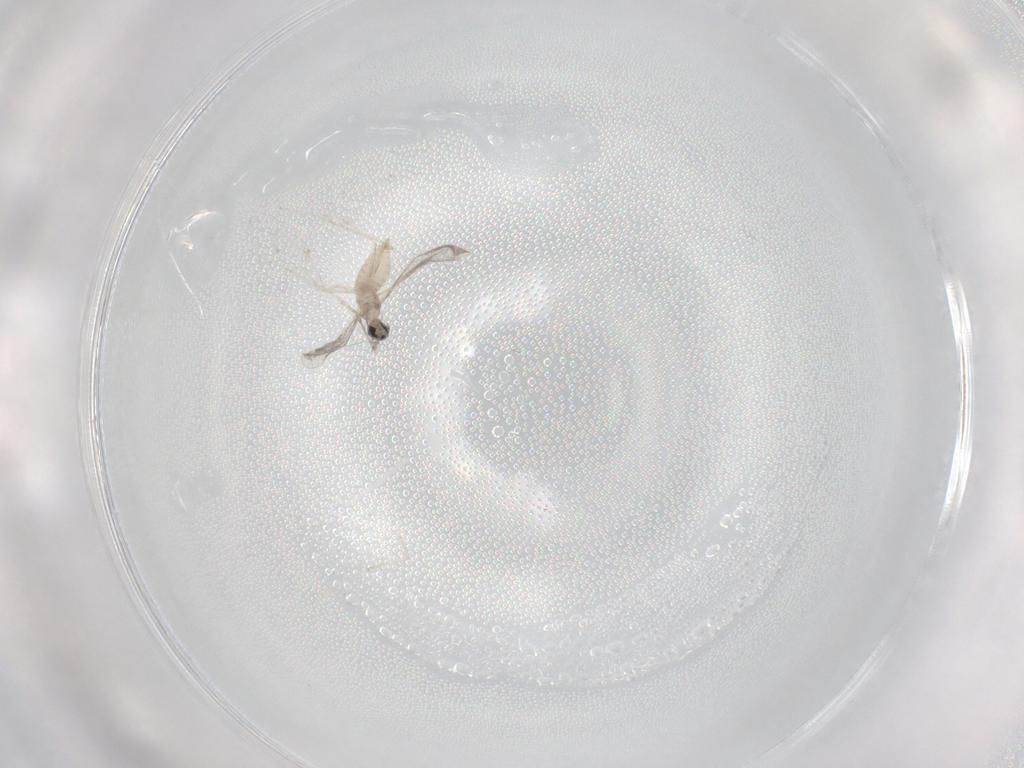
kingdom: Animalia
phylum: Arthropoda
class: Insecta
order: Diptera
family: Cecidomyiidae
